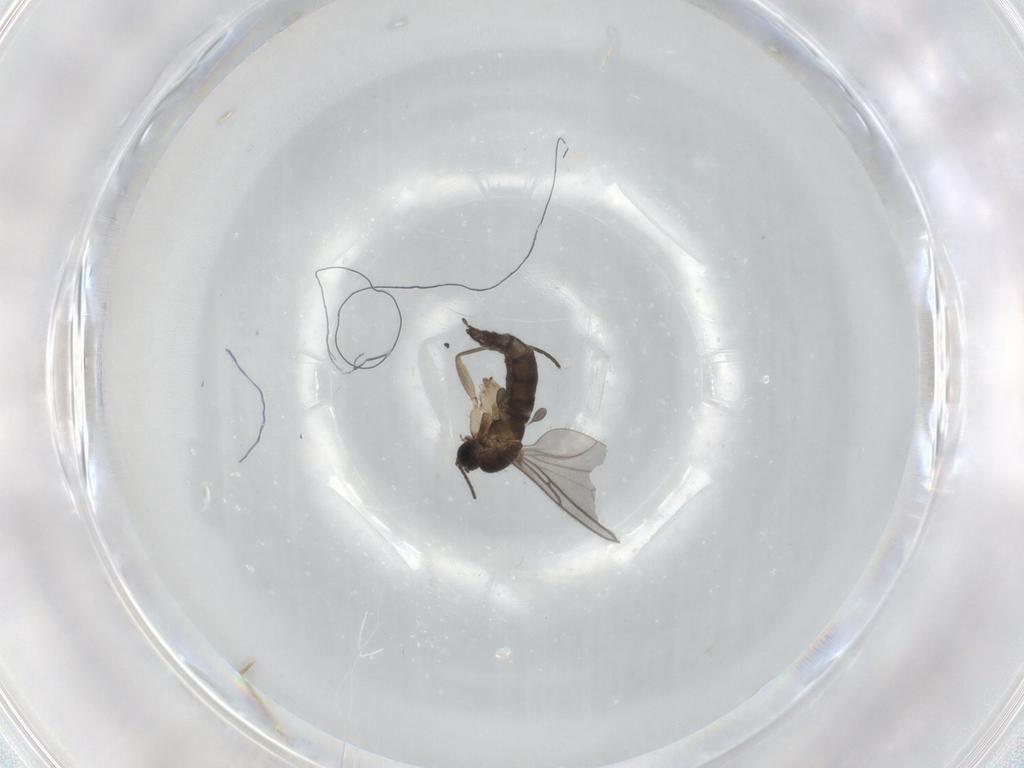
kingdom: Animalia
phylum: Arthropoda
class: Insecta
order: Diptera
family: Sciaridae
